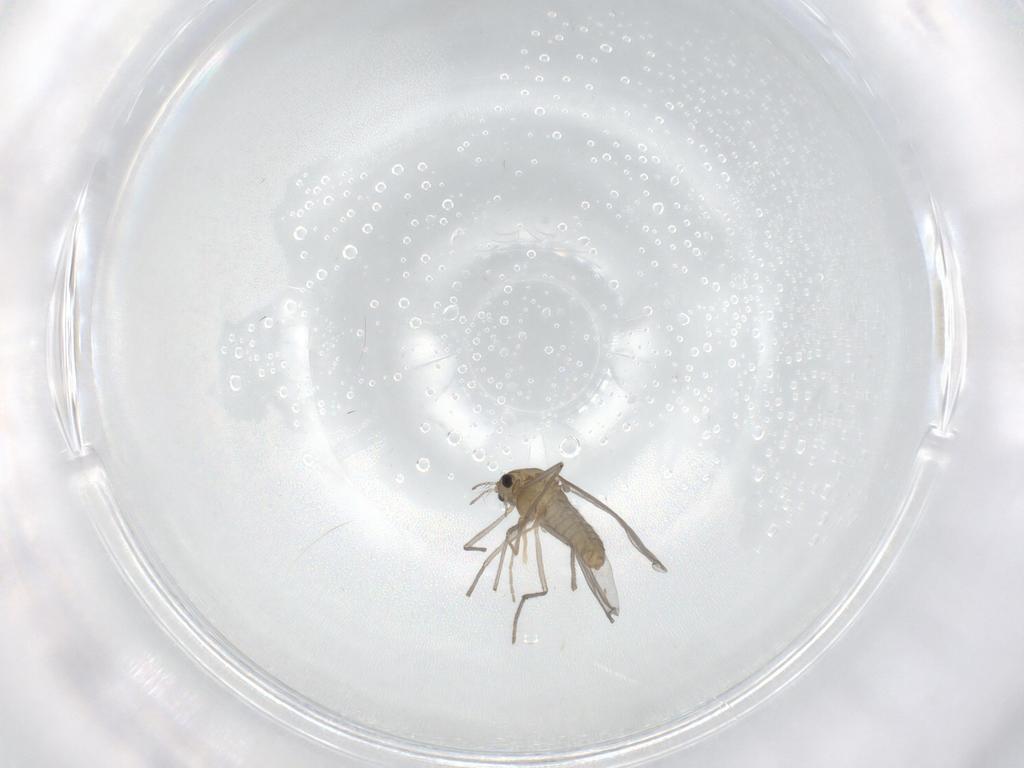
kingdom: Animalia
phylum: Arthropoda
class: Insecta
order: Diptera
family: Chironomidae
